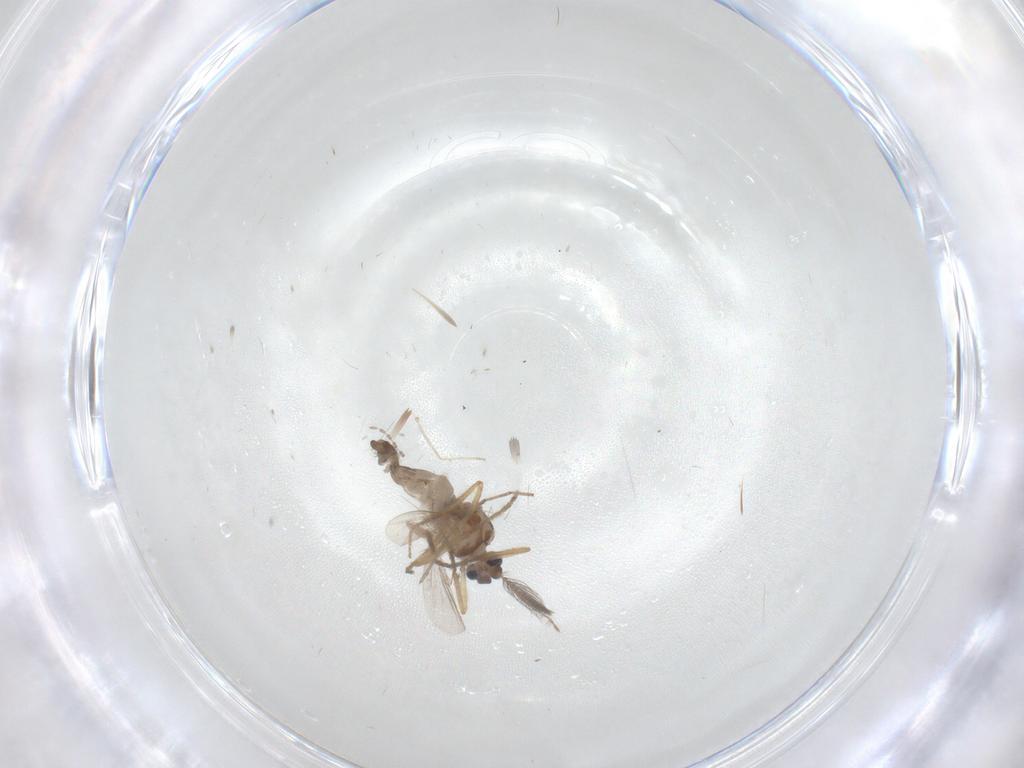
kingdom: Animalia
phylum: Arthropoda
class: Insecta
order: Diptera
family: Ceratopogonidae
